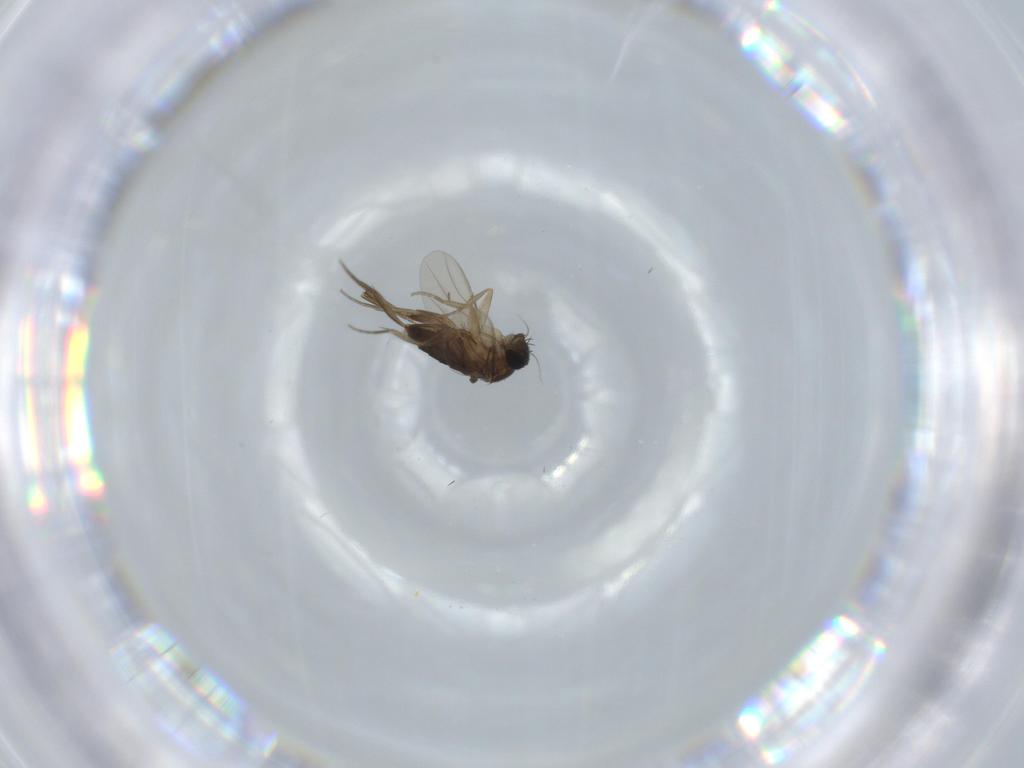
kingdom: Animalia
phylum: Arthropoda
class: Insecta
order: Diptera
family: Phoridae
